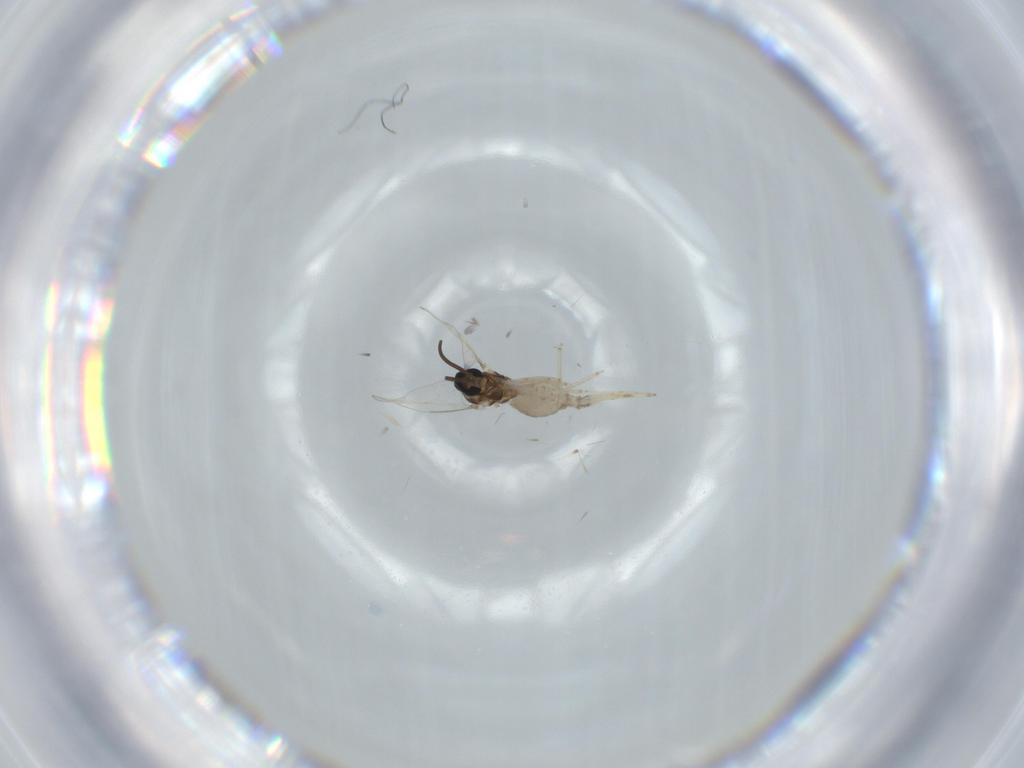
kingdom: Animalia
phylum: Arthropoda
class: Insecta
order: Diptera
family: Cecidomyiidae
